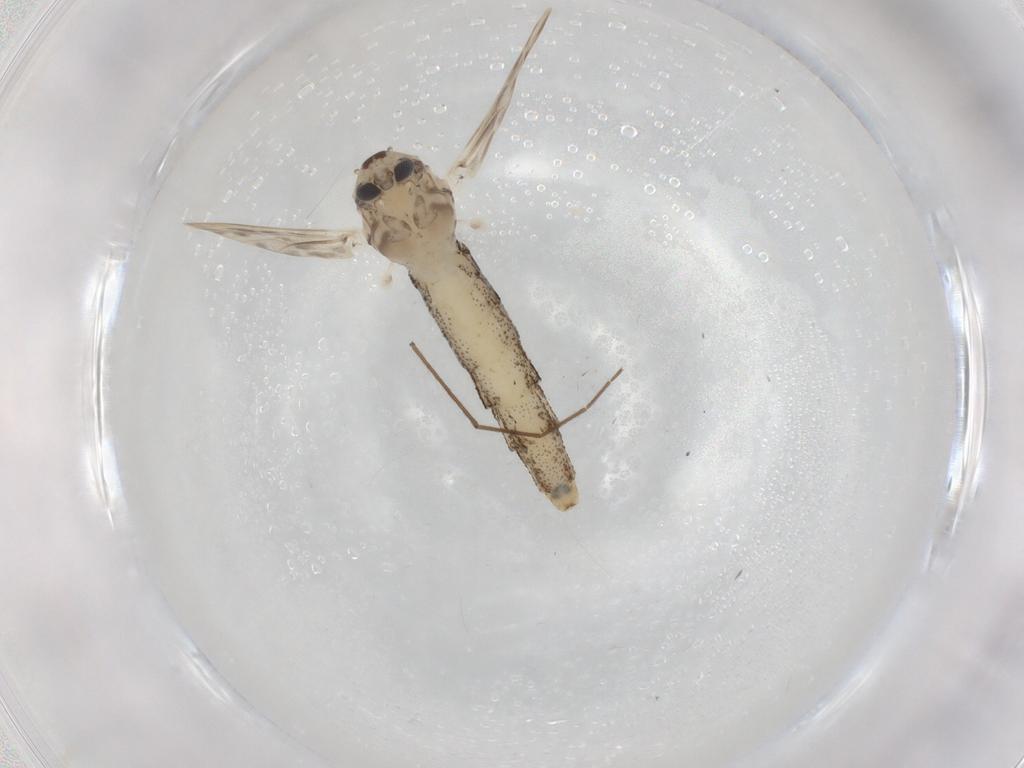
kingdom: Animalia
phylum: Arthropoda
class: Insecta
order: Diptera
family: Chaoboridae
